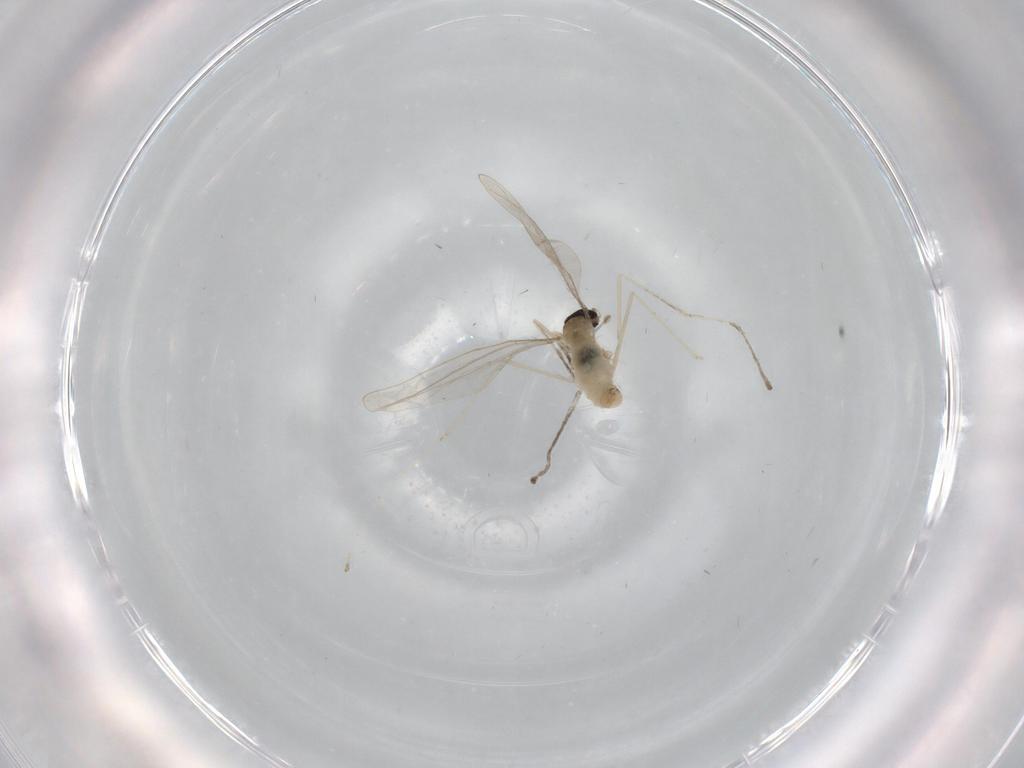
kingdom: Animalia
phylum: Arthropoda
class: Insecta
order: Diptera
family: Cecidomyiidae
